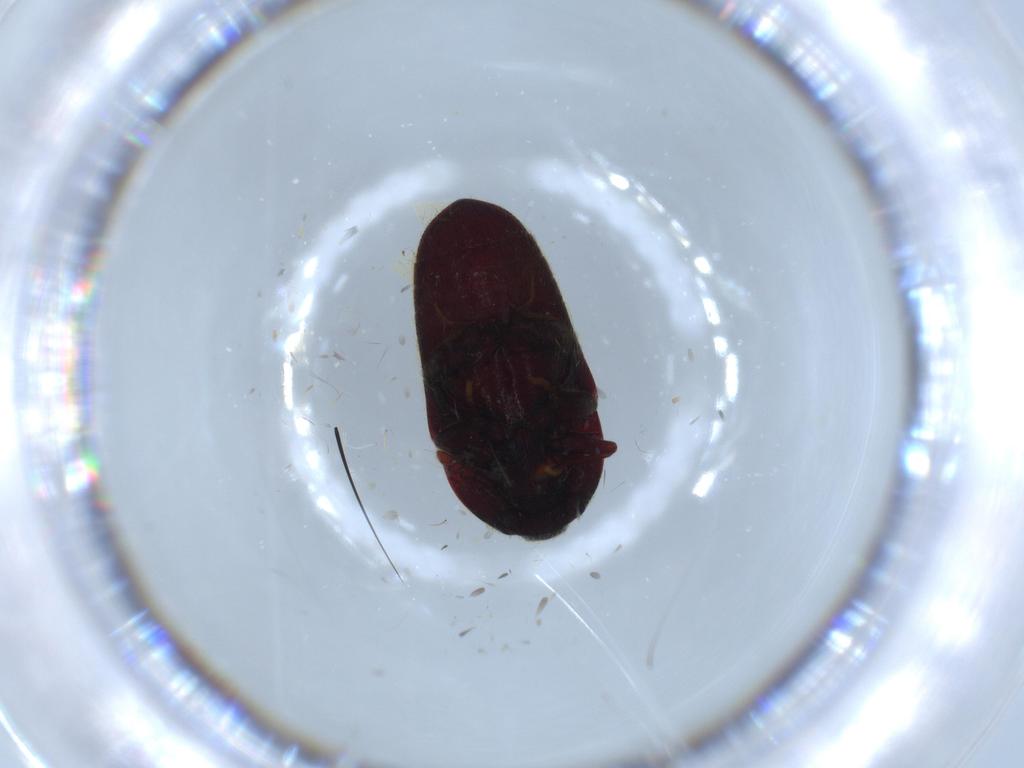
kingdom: Animalia
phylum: Arthropoda
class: Insecta
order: Coleoptera
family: Throscidae
